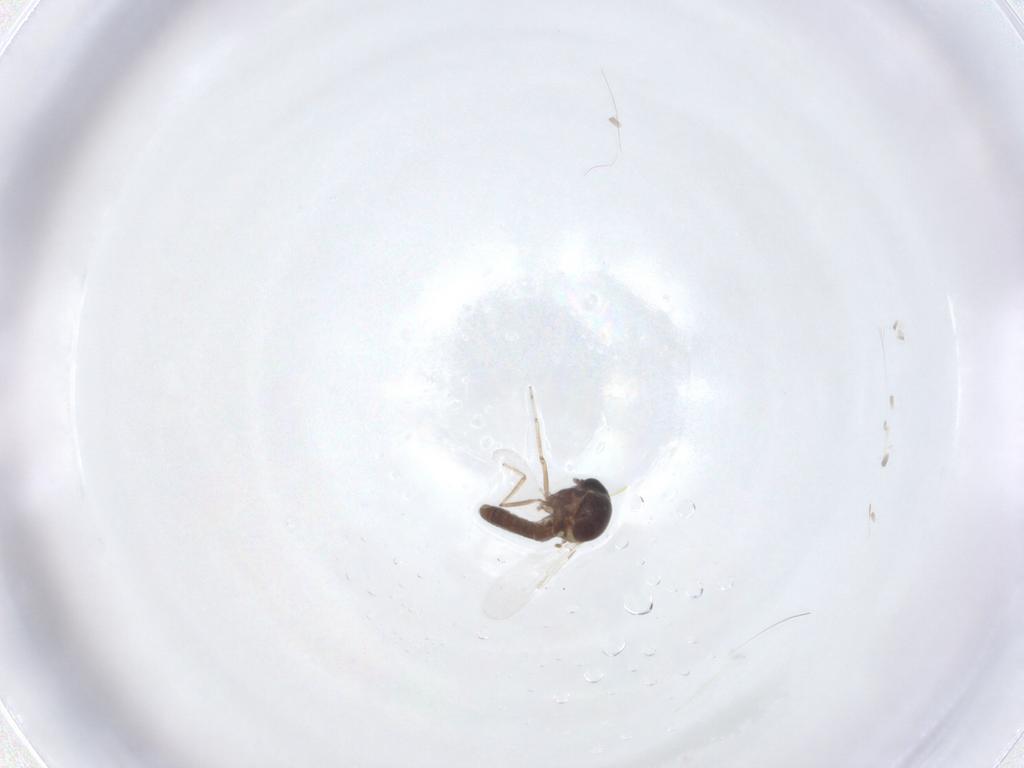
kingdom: Animalia
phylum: Arthropoda
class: Insecta
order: Diptera
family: Ceratopogonidae
